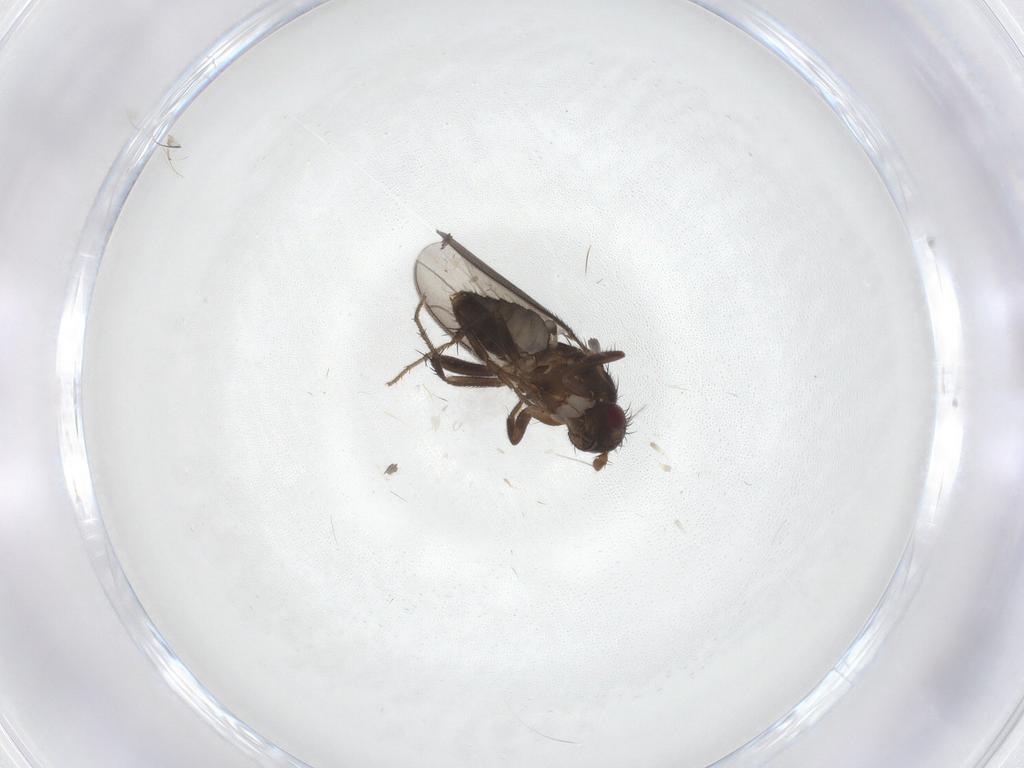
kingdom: Animalia
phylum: Arthropoda
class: Insecta
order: Diptera
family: Sphaeroceridae
